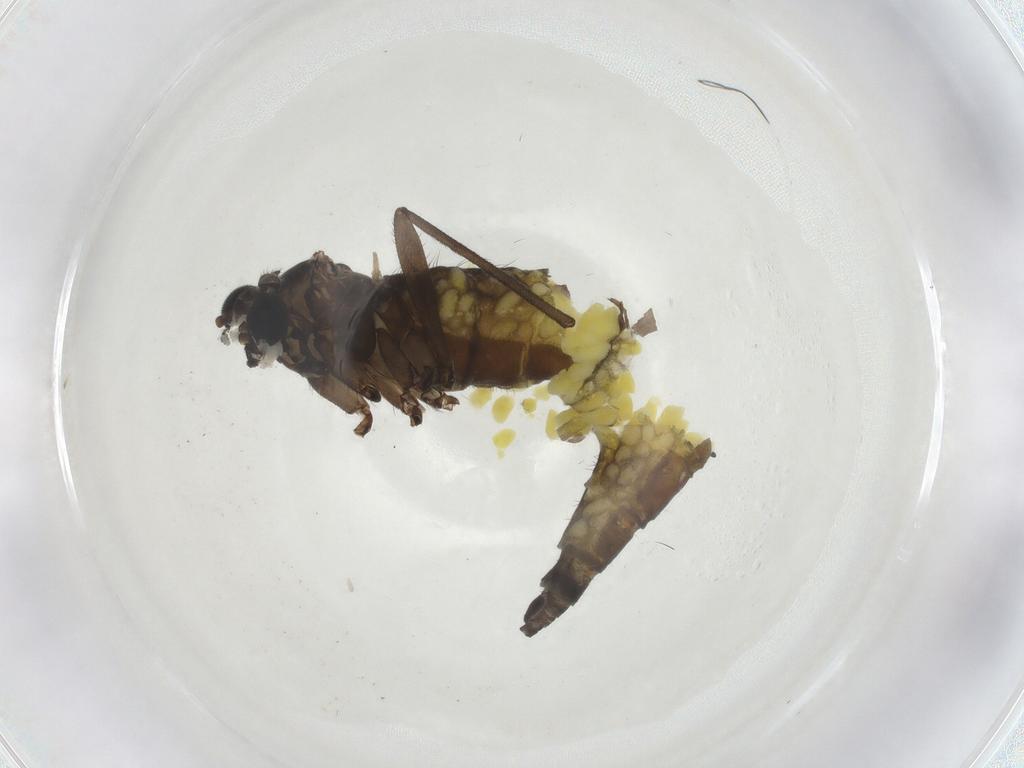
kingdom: Animalia
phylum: Arthropoda
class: Insecta
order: Diptera
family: Sciaridae
